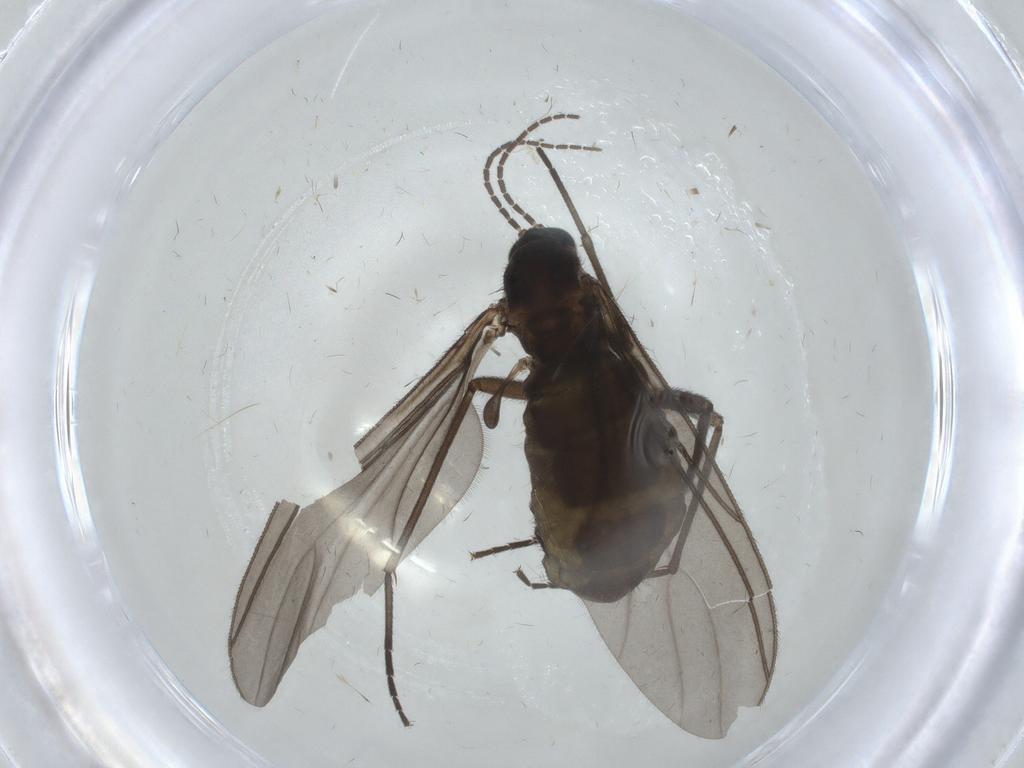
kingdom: Animalia
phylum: Arthropoda
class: Insecta
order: Diptera
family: Sciaridae
